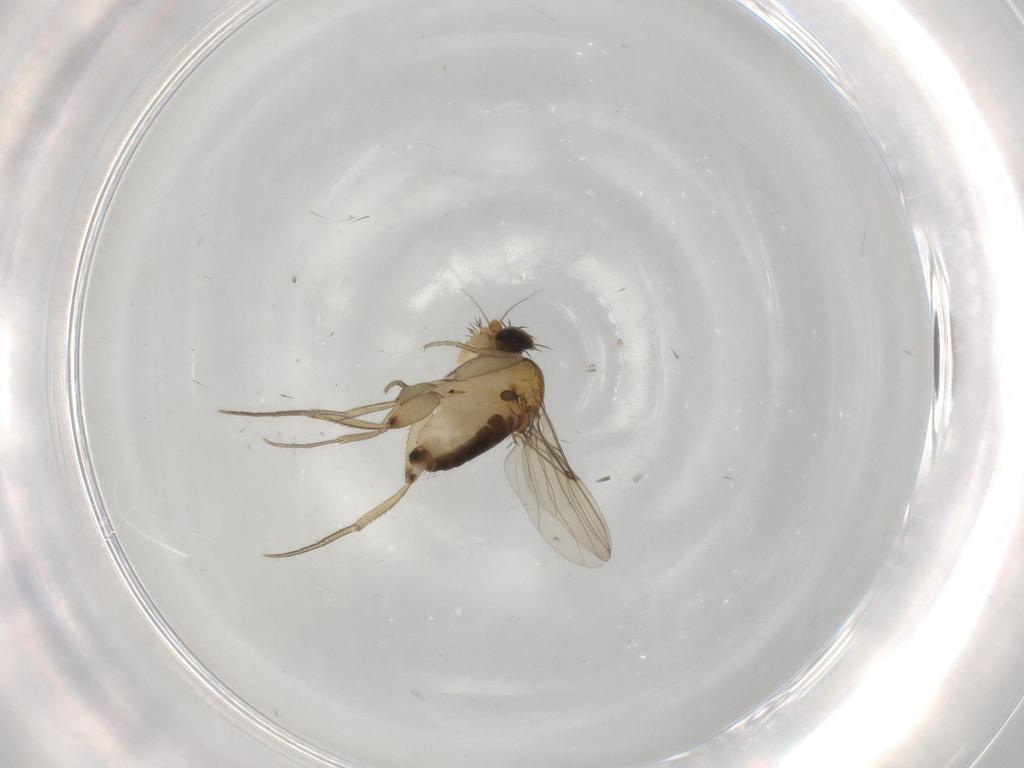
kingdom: Animalia
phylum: Arthropoda
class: Insecta
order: Diptera
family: Phoridae
